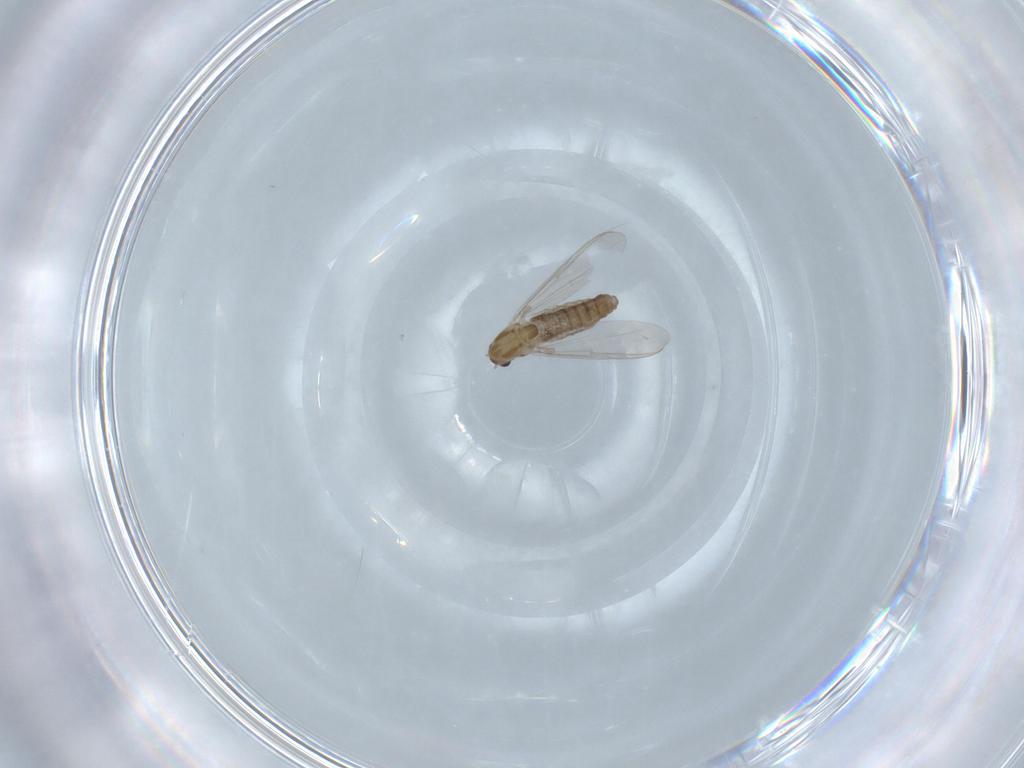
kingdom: Animalia
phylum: Arthropoda
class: Insecta
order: Diptera
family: Chironomidae
